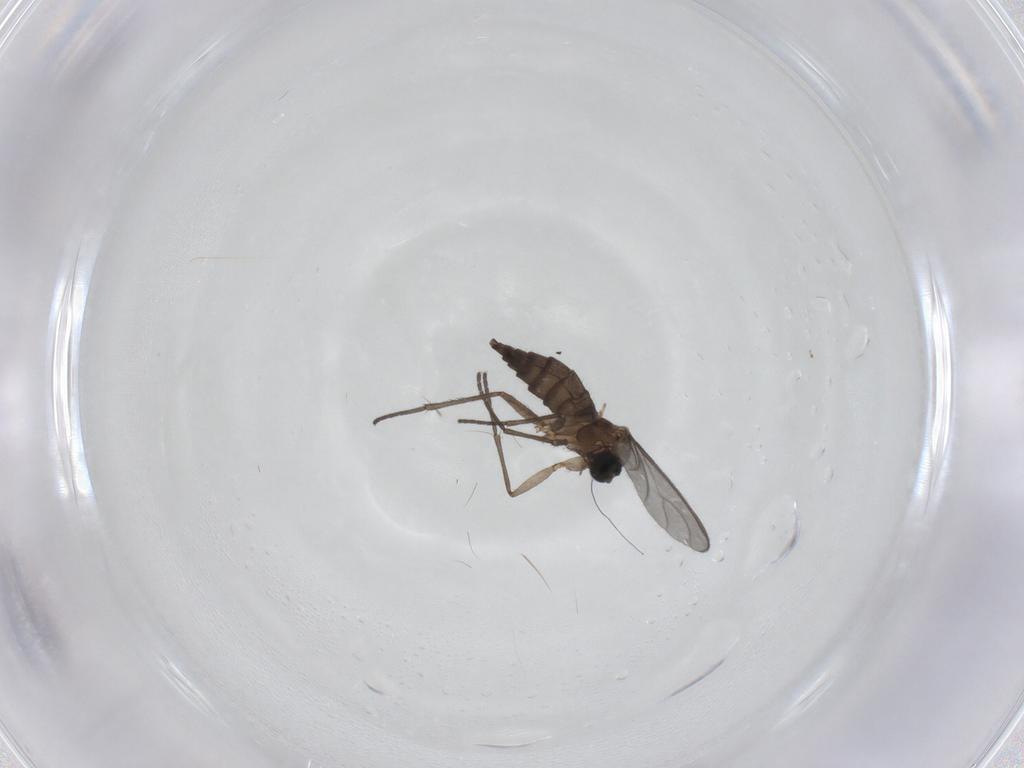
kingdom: Animalia
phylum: Arthropoda
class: Insecta
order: Diptera
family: Culicidae
